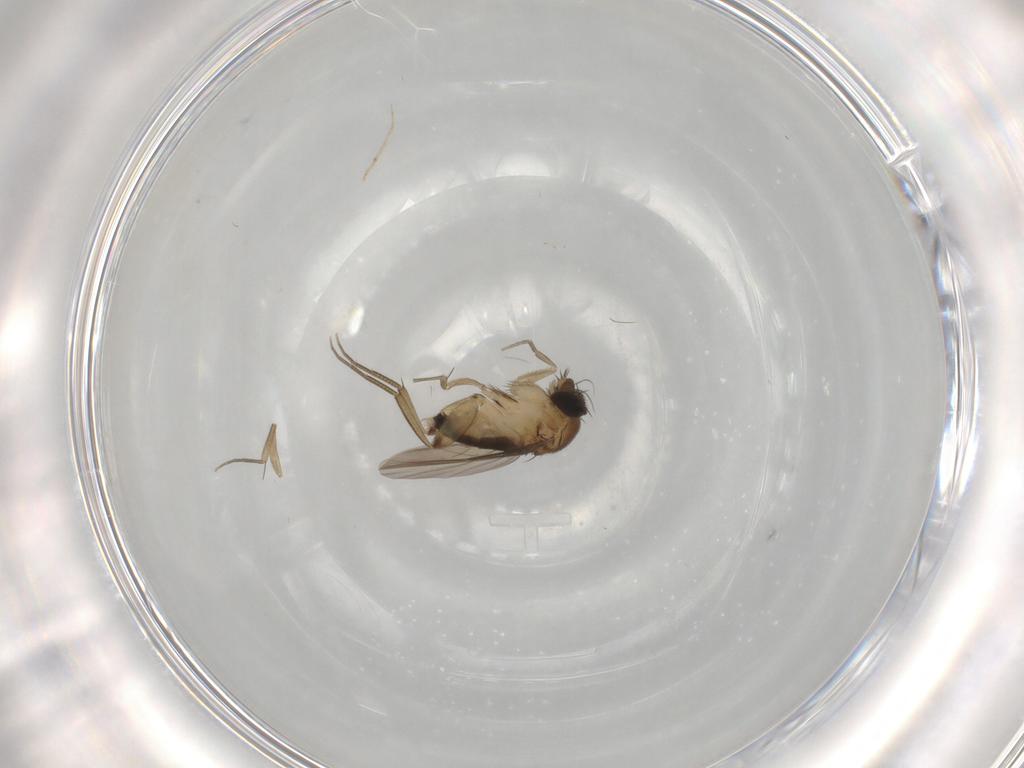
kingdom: Animalia
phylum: Arthropoda
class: Insecta
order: Diptera
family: Phoridae
